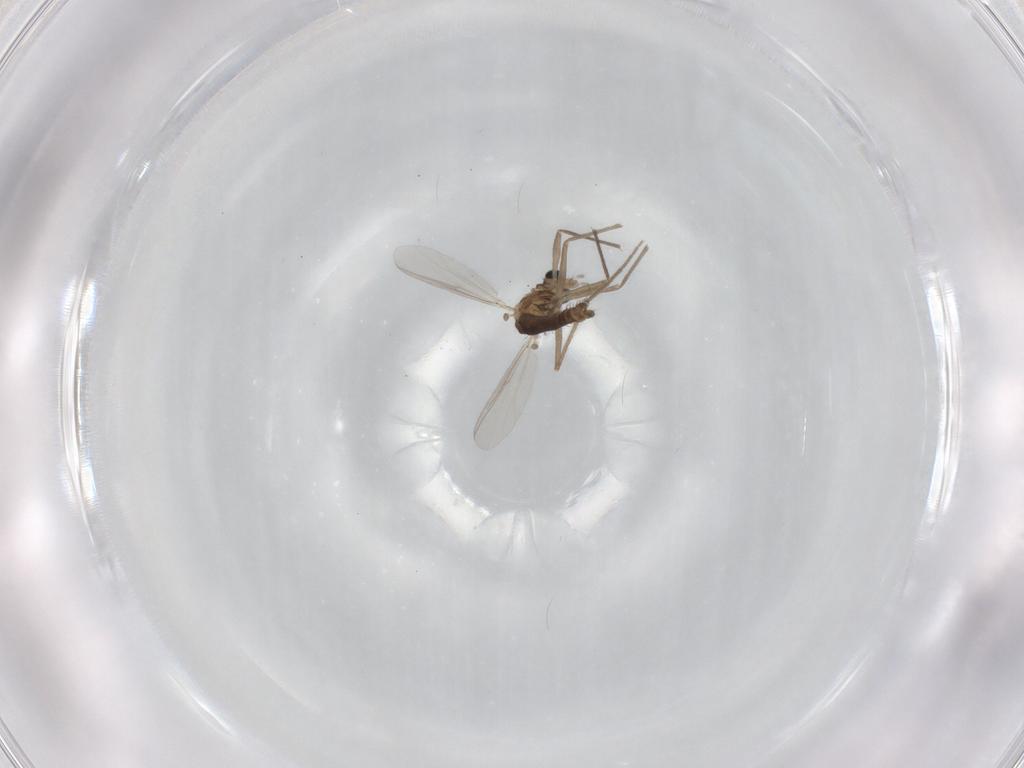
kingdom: Animalia
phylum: Arthropoda
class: Insecta
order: Diptera
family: Chironomidae
